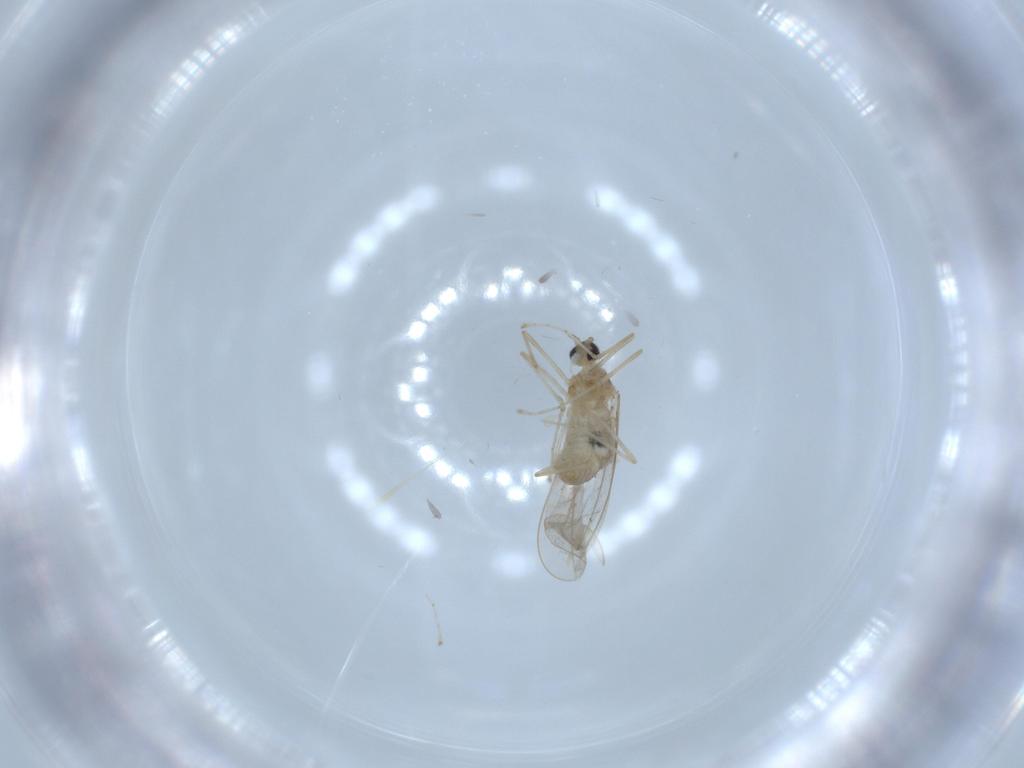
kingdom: Animalia
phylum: Arthropoda
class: Insecta
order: Diptera
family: Cecidomyiidae
